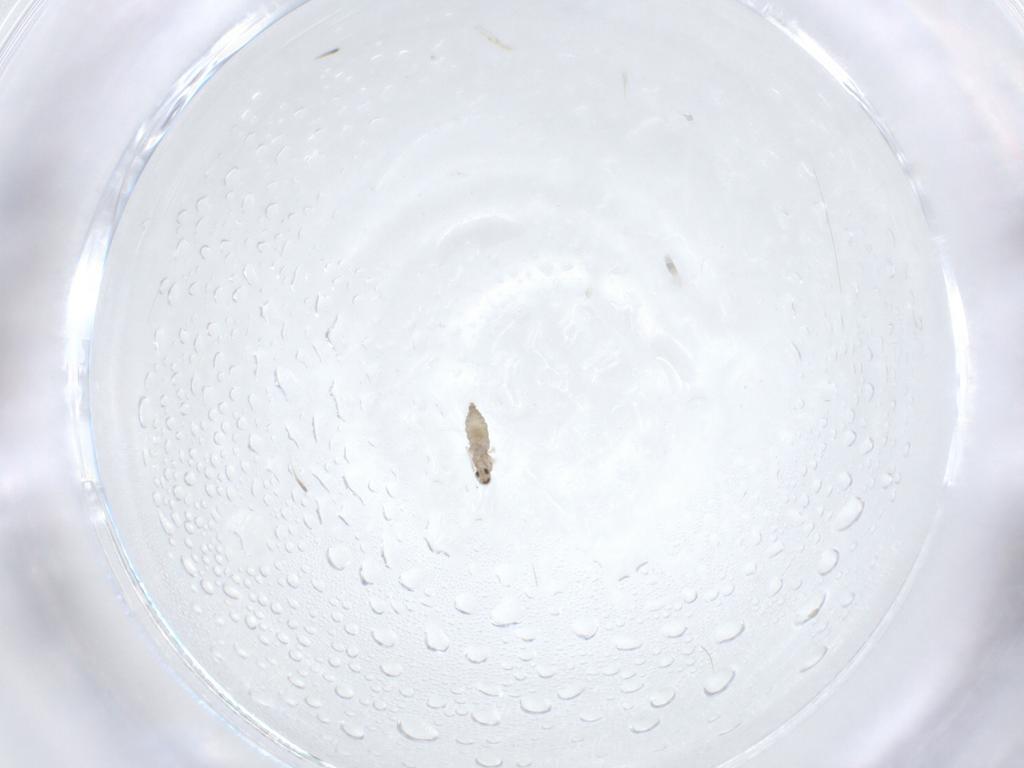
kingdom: Animalia
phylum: Arthropoda
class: Insecta
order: Diptera
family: Cecidomyiidae
